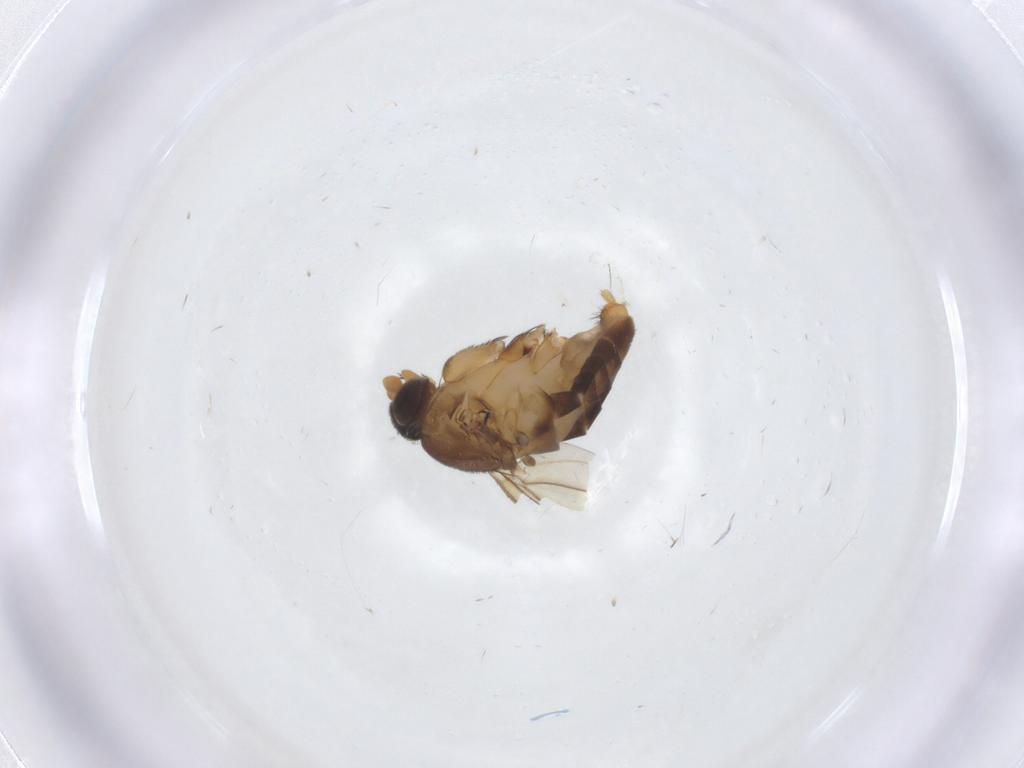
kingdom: Animalia
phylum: Arthropoda
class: Insecta
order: Diptera
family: Phoridae
